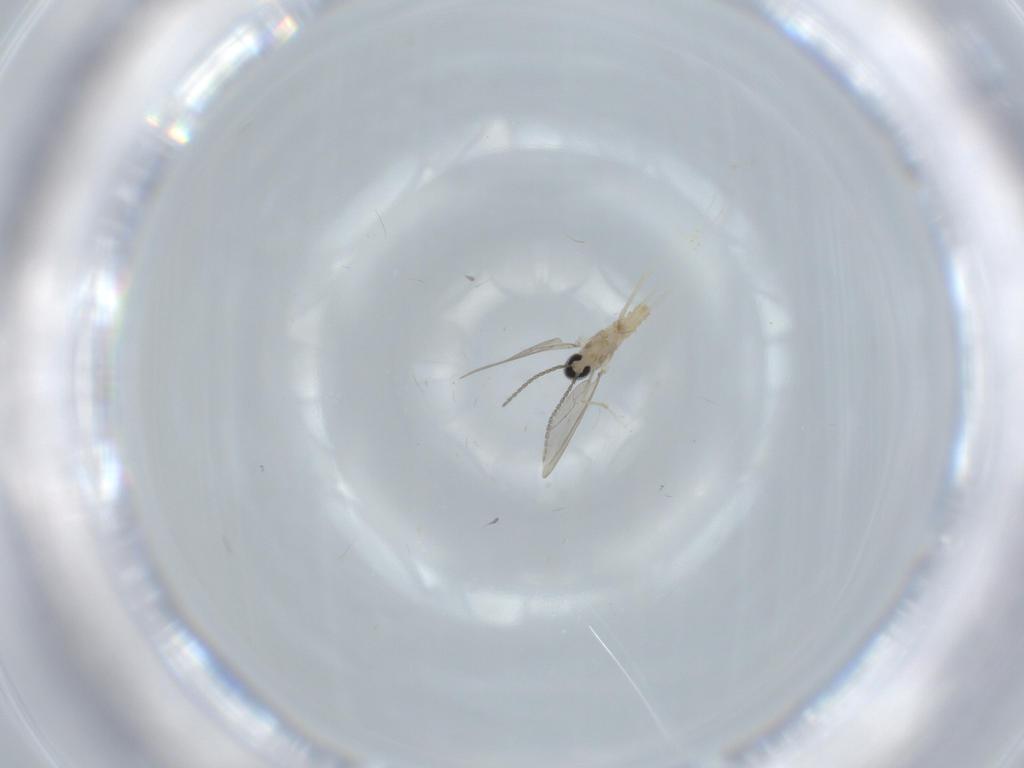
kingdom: Animalia
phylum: Arthropoda
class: Insecta
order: Diptera
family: Cecidomyiidae
